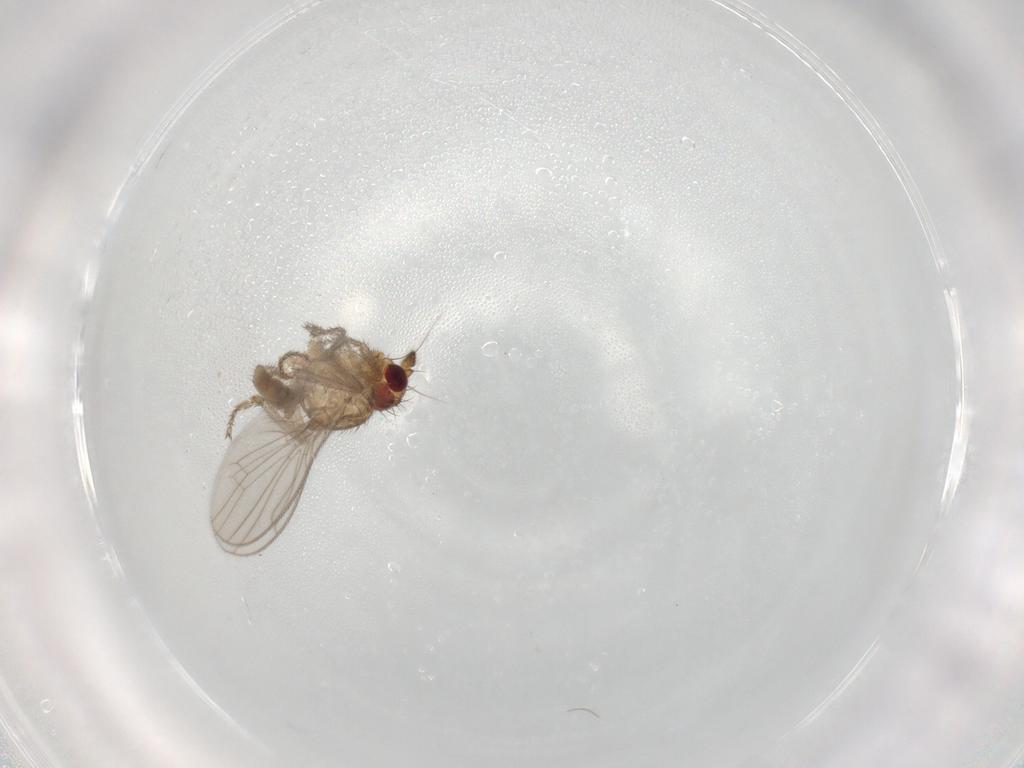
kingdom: Animalia
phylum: Arthropoda
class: Insecta
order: Diptera
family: Sphaeroceridae
